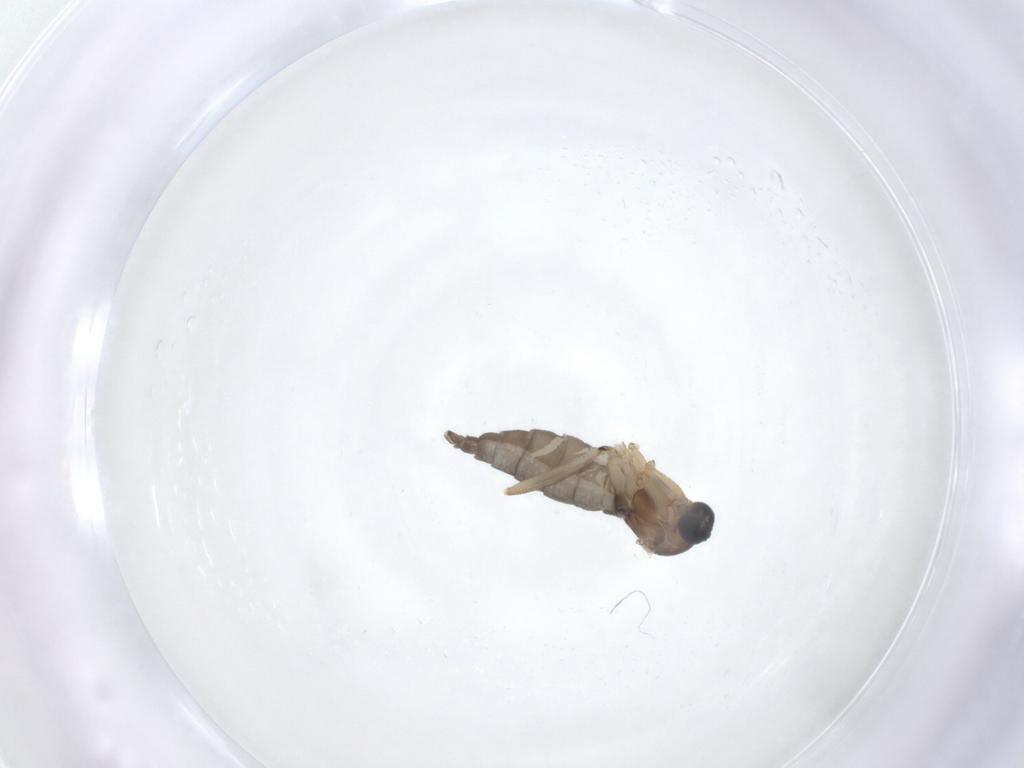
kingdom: Animalia
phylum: Arthropoda
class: Insecta
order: Diptera
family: Sciaridae
